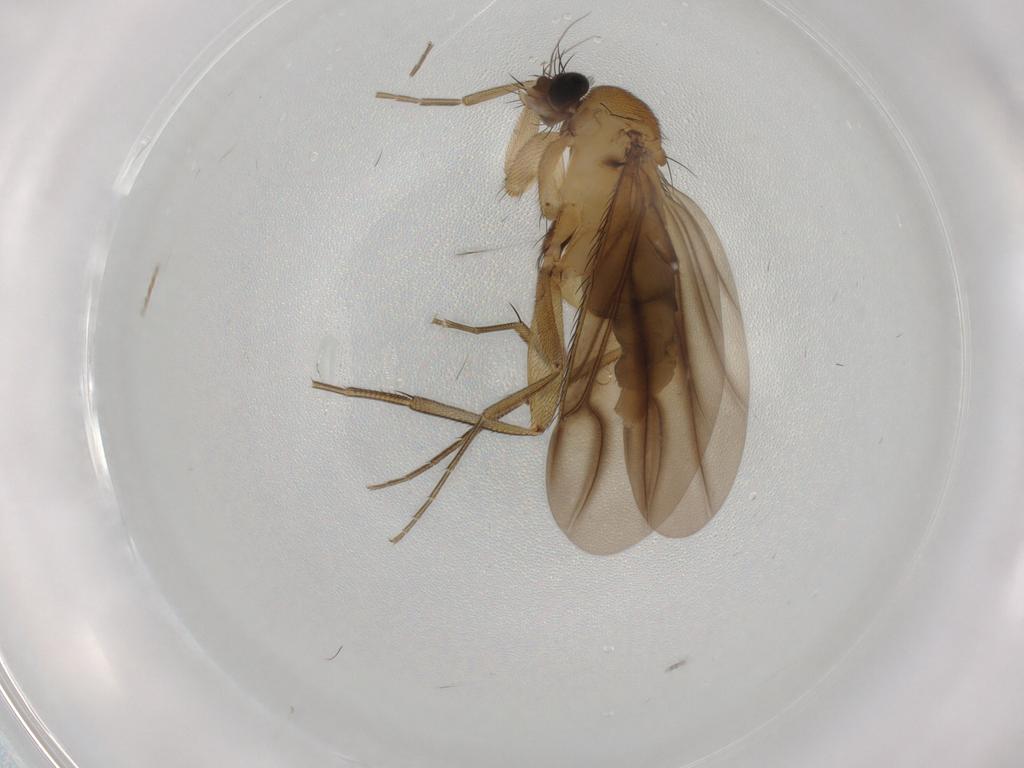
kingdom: Animalia
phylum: Arthropoda
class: Insecta
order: Diptera
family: Phoridae
